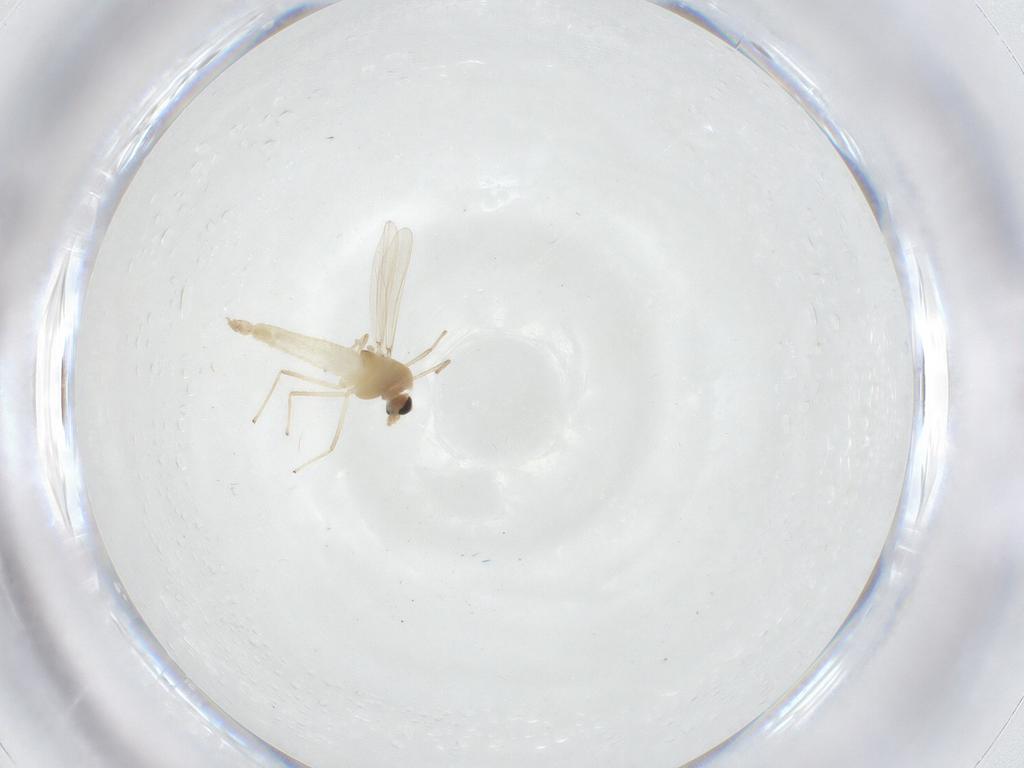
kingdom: Animalia
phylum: Arthropoda
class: Insecta
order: Diptera
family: Chironomidae
